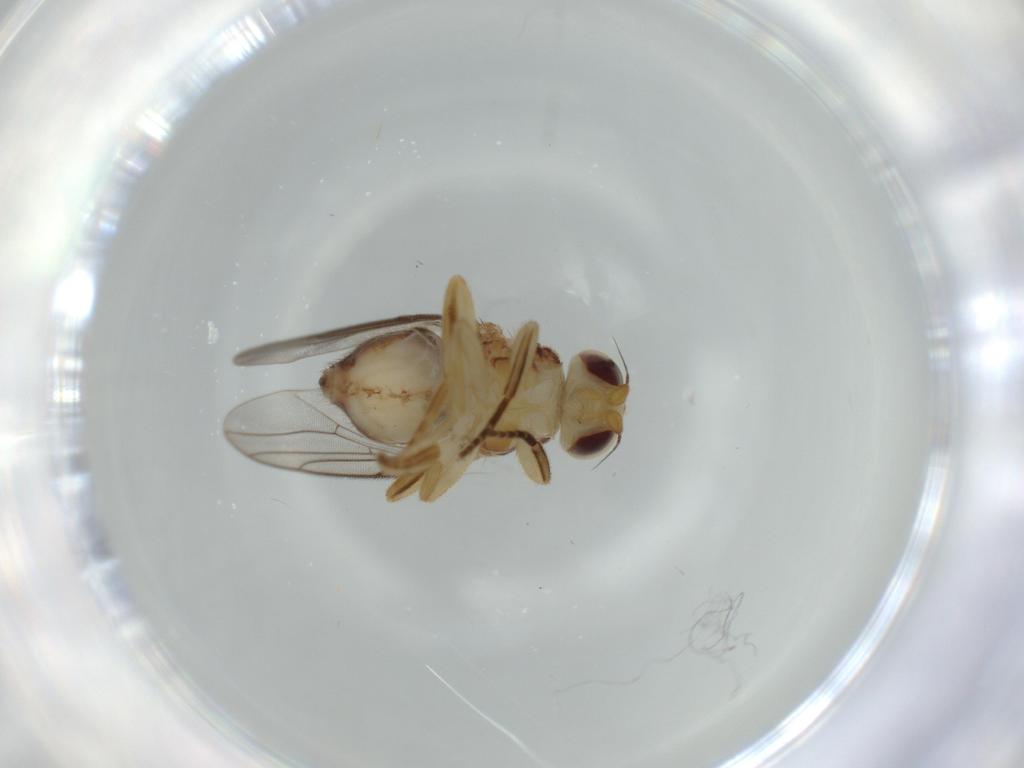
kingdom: Animalia
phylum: Arthropoda
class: Insecta
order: Diptera
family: Chloropidae
